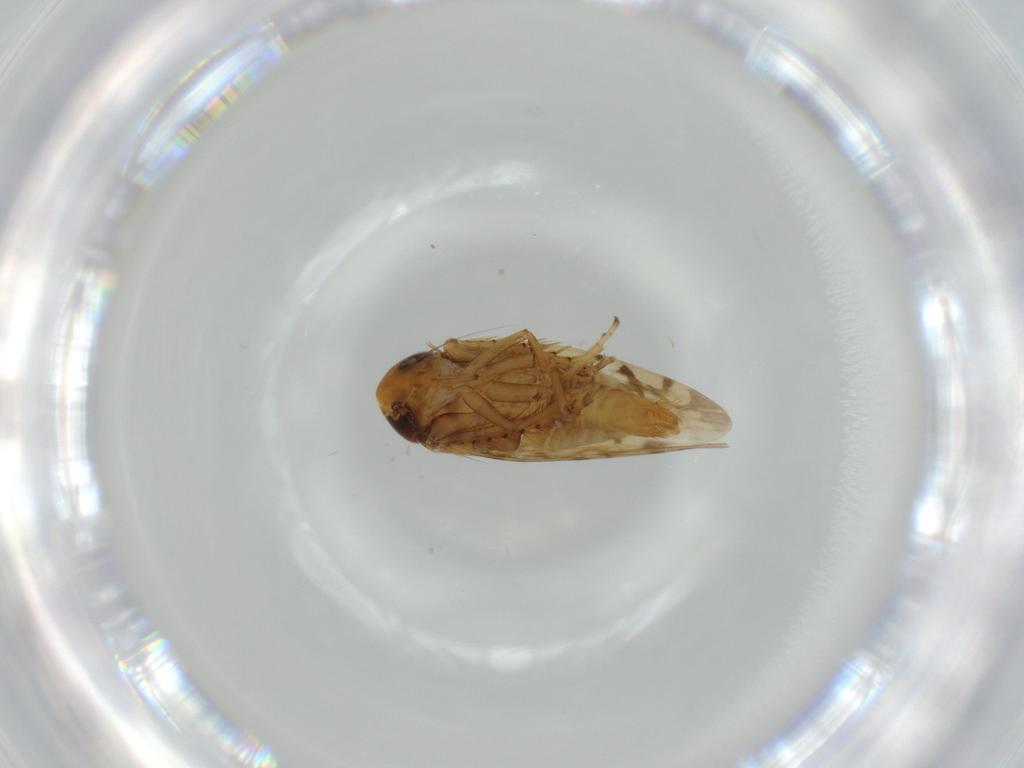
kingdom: Animalia
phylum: Arthropoda
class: Insecta
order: Hemiptera
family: Cicadellidae
